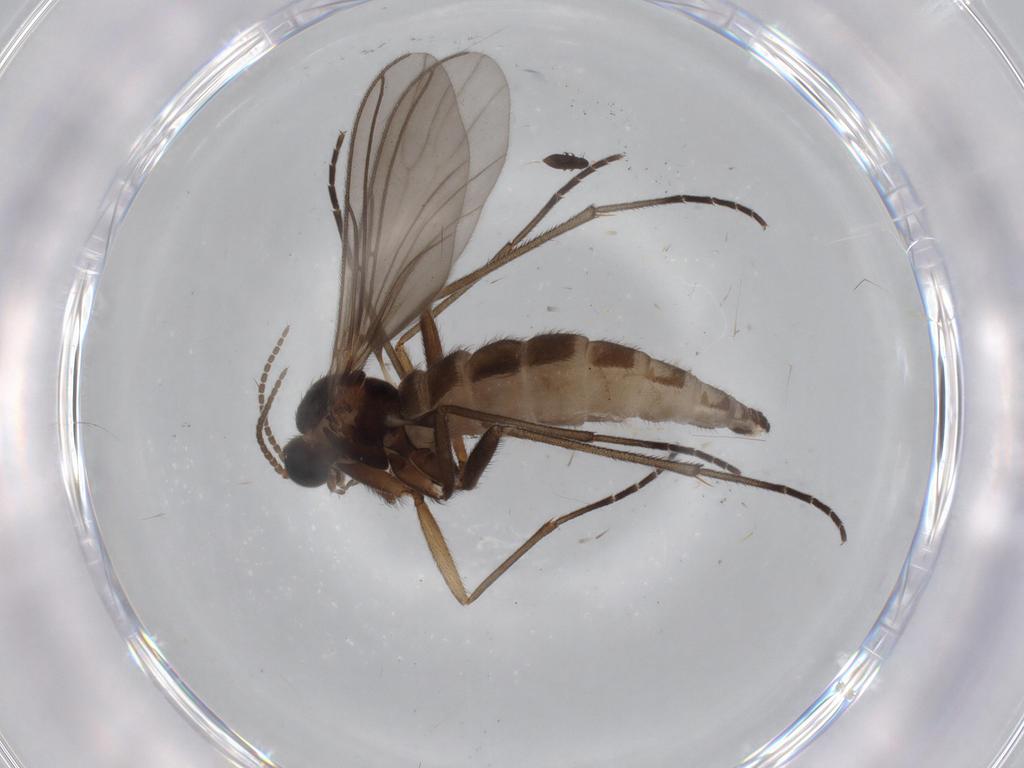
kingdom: Animalia
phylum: Arthropoda
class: Insecta
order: Diptera
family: Sciaridae
